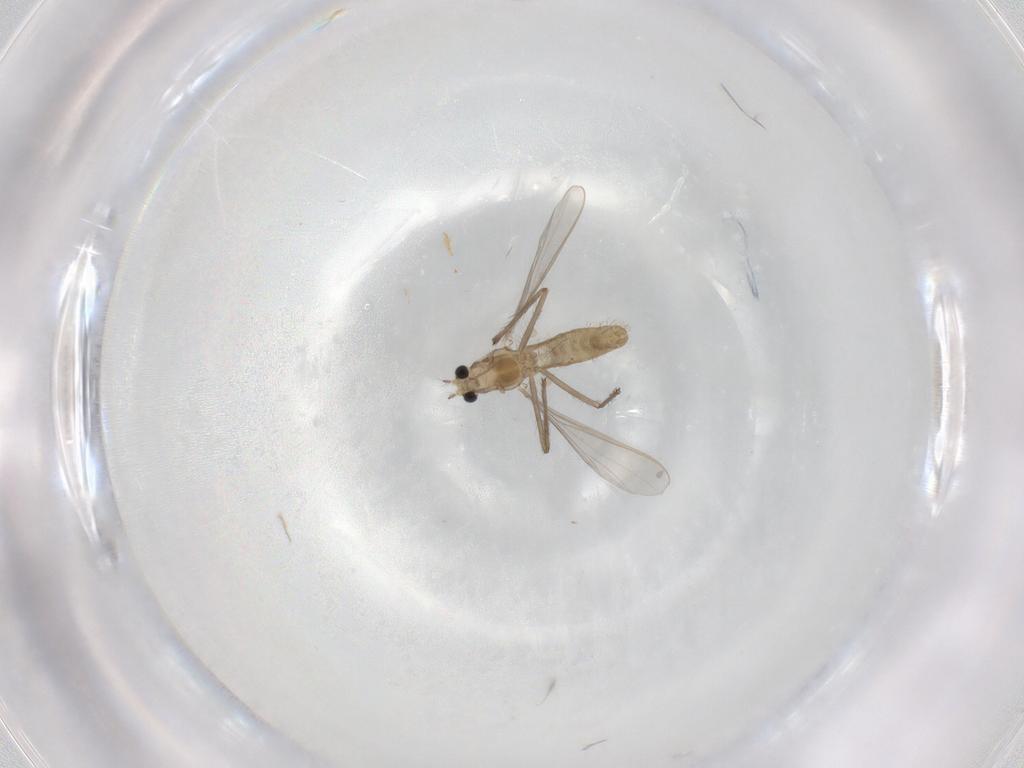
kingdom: Animalia
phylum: Arthropoda
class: Insecta
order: Diptera
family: Chironomidae
